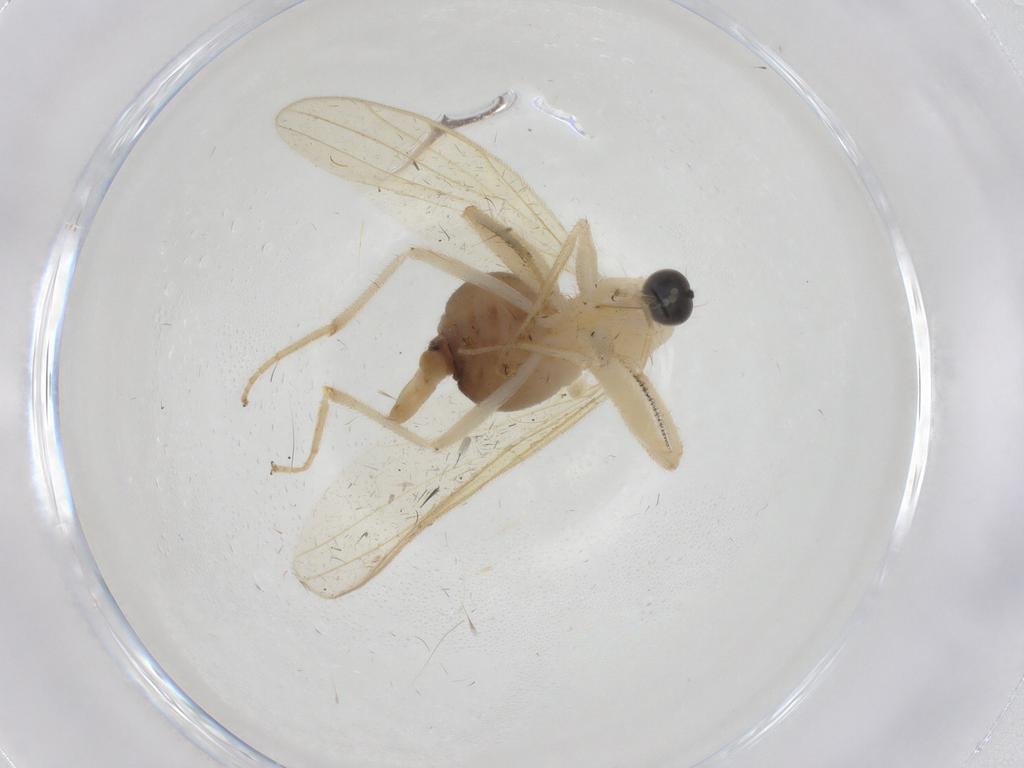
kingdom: Animalia
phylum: Arthropoda
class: Insecta
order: Diptera
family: Hybotidae
